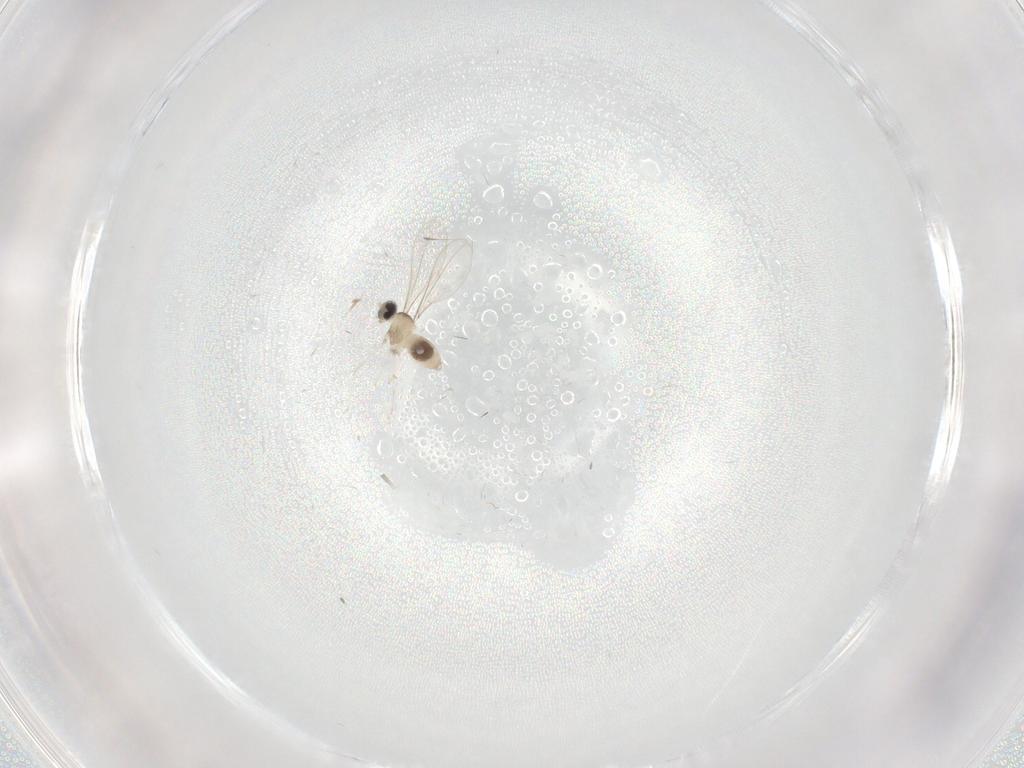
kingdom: Animalia
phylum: Arthropoda
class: Insecta
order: Diptera
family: Cecidomyiidae
